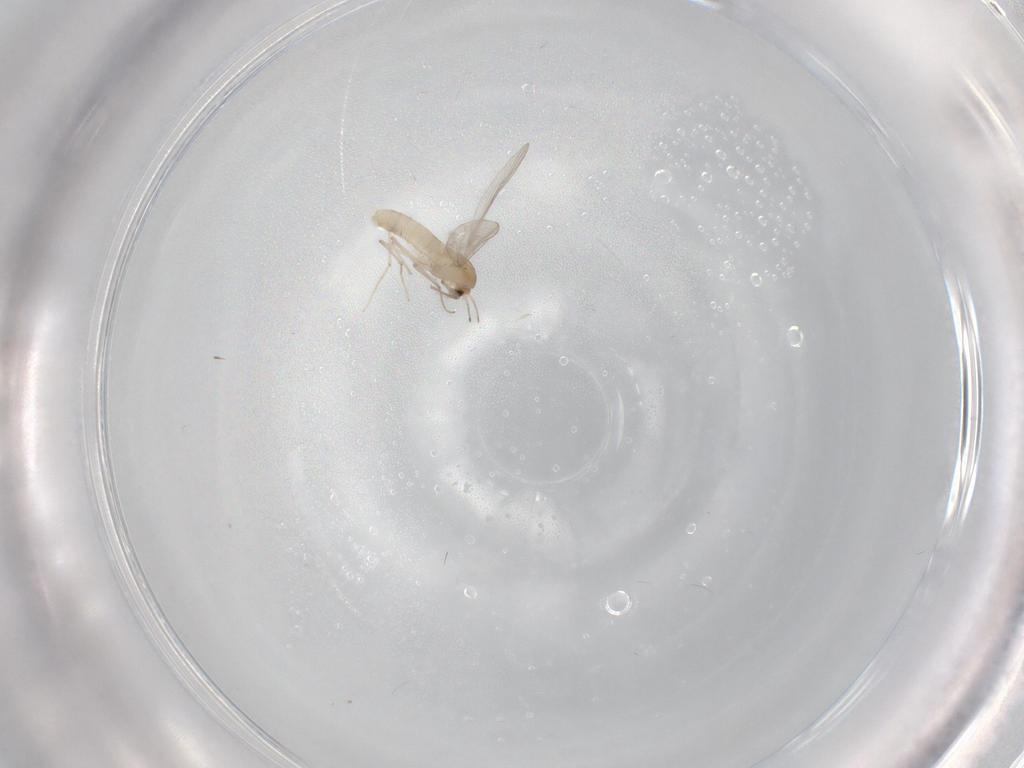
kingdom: Animalia
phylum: Arthropoda
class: Insecta
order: Diptera
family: Chironomidae
